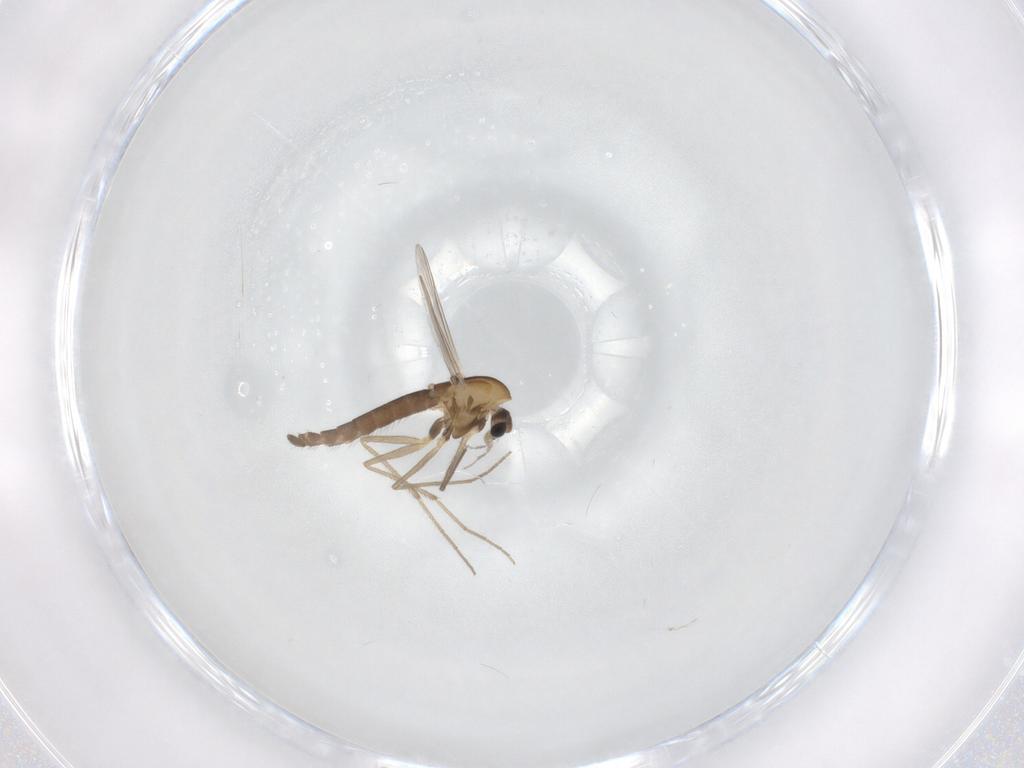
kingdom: Animalia
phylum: Arthropoda
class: Insecta
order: Diptera
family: Chironomidae
